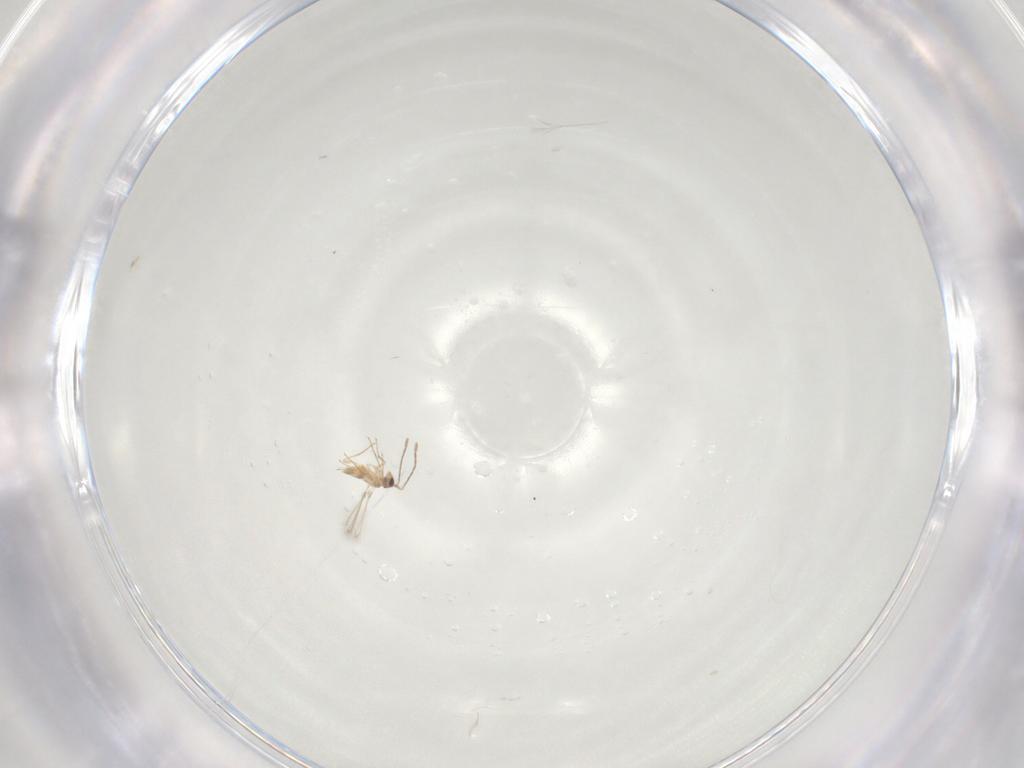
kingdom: Animalia
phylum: Arthropoda
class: Insecta
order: Hymenoptera
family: Mymaridae
